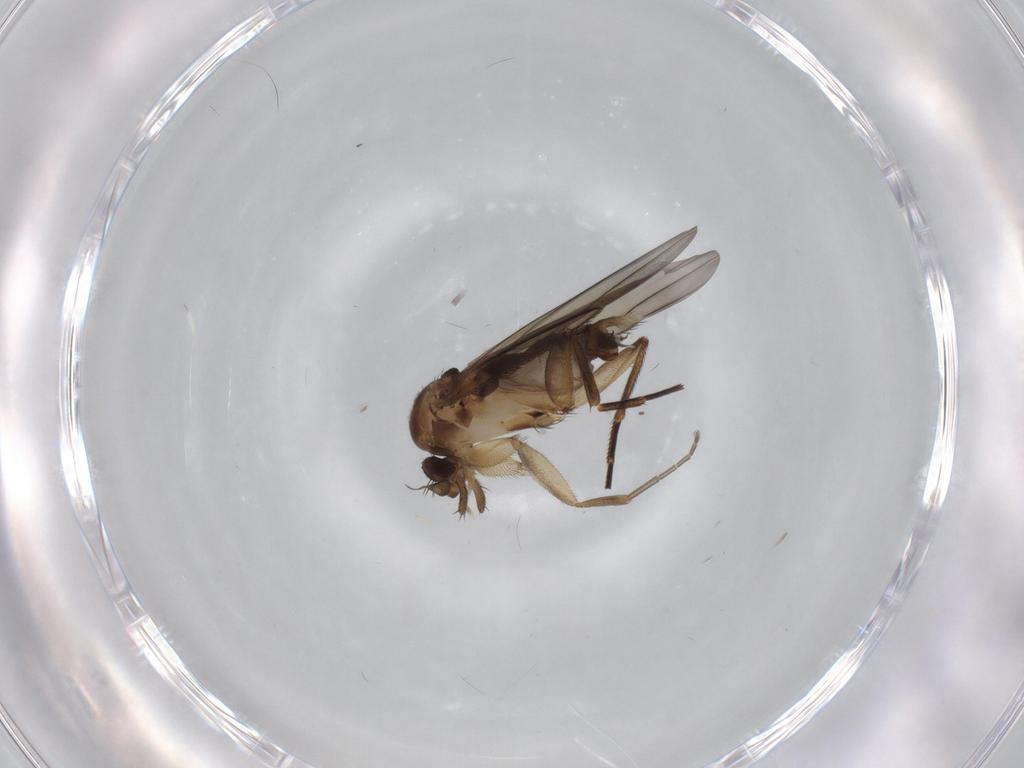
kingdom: Animalia
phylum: Arthropoda
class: Insecta
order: Diptera
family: Phoridae
